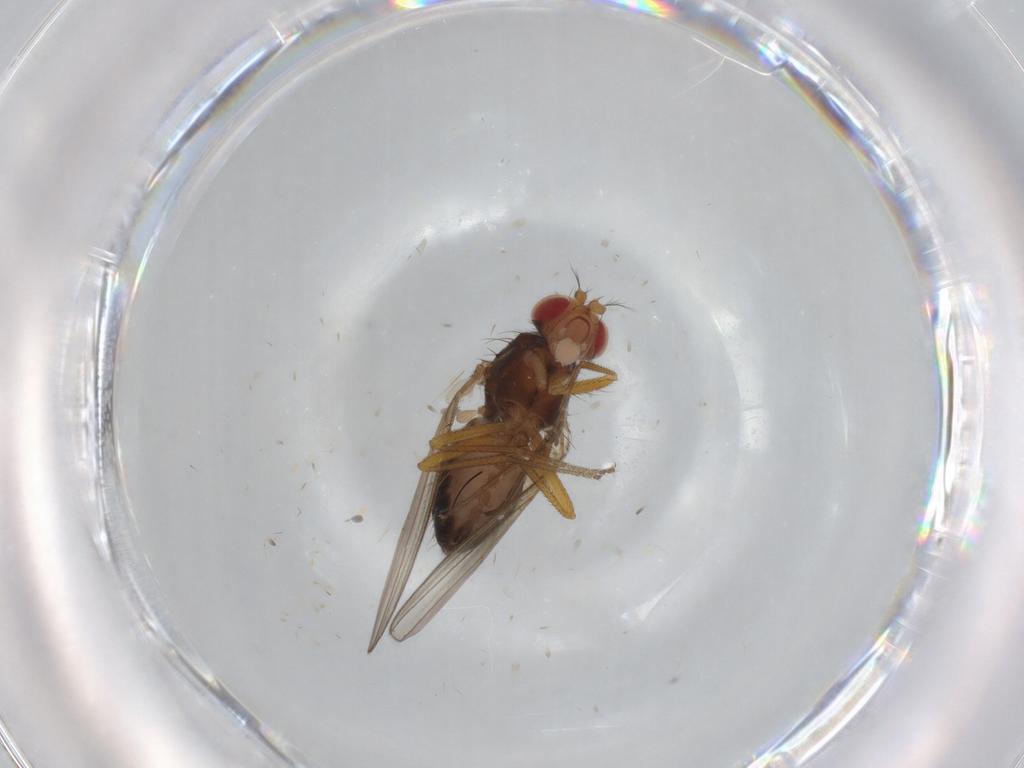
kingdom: Animalia
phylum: Arthropoda
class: Insecta
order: Diptera
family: Drosophilidae
